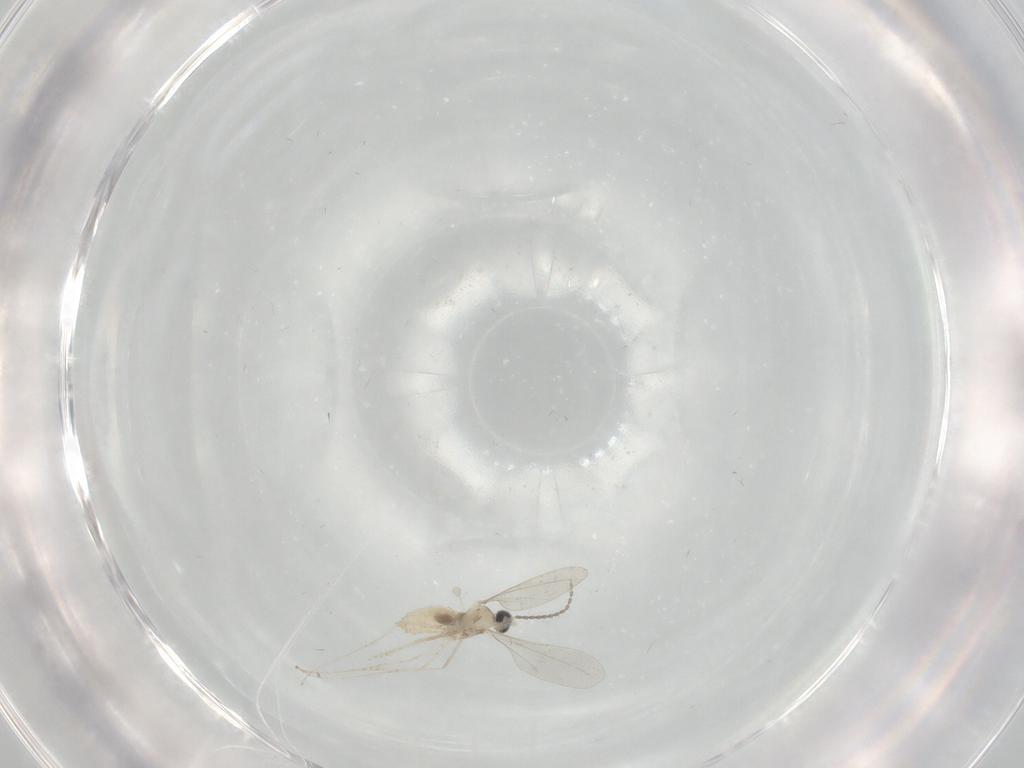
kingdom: Animalia
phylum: Arthropoda
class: Insecta
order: Diptera
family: Cecidomyiidae
